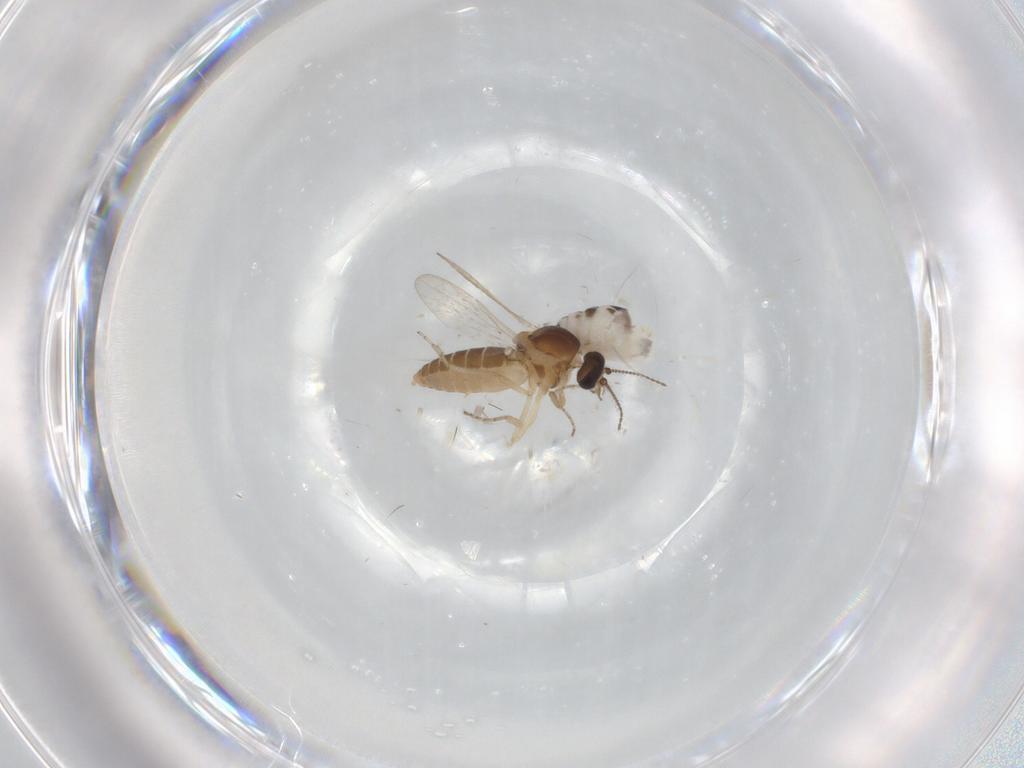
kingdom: Animalia
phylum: Arthropoda
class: Insecta
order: Diptera
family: Ceratopogonidae
